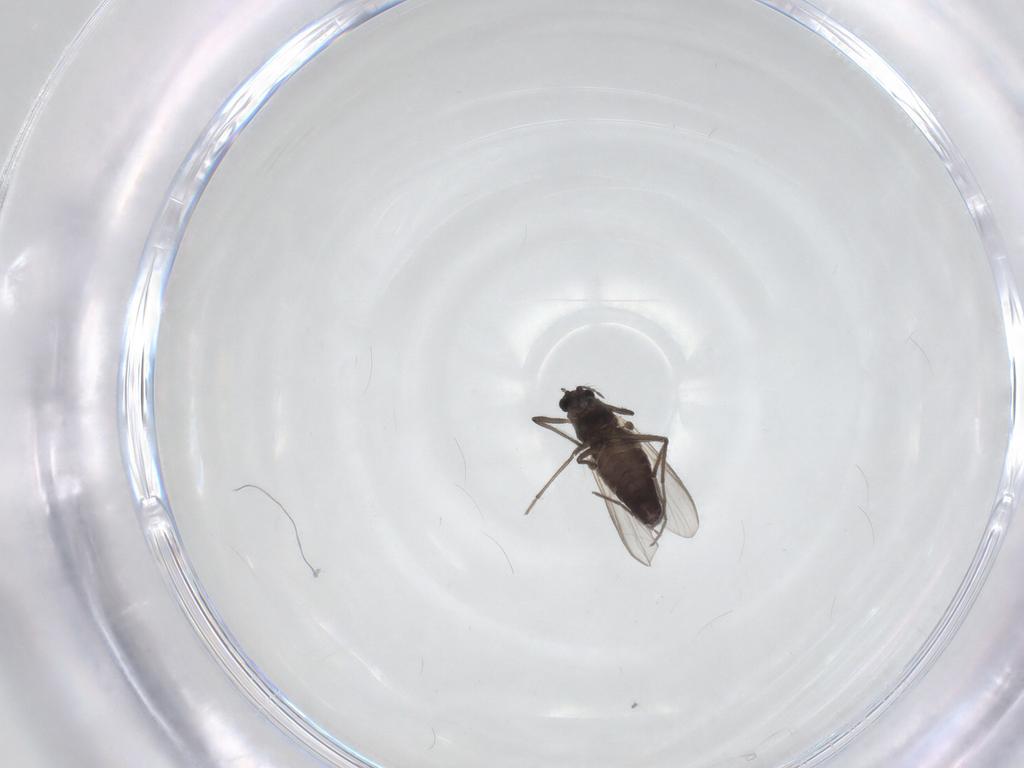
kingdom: Animalia
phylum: Arthropoda
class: Insecta
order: Diptera
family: Chironomidae
